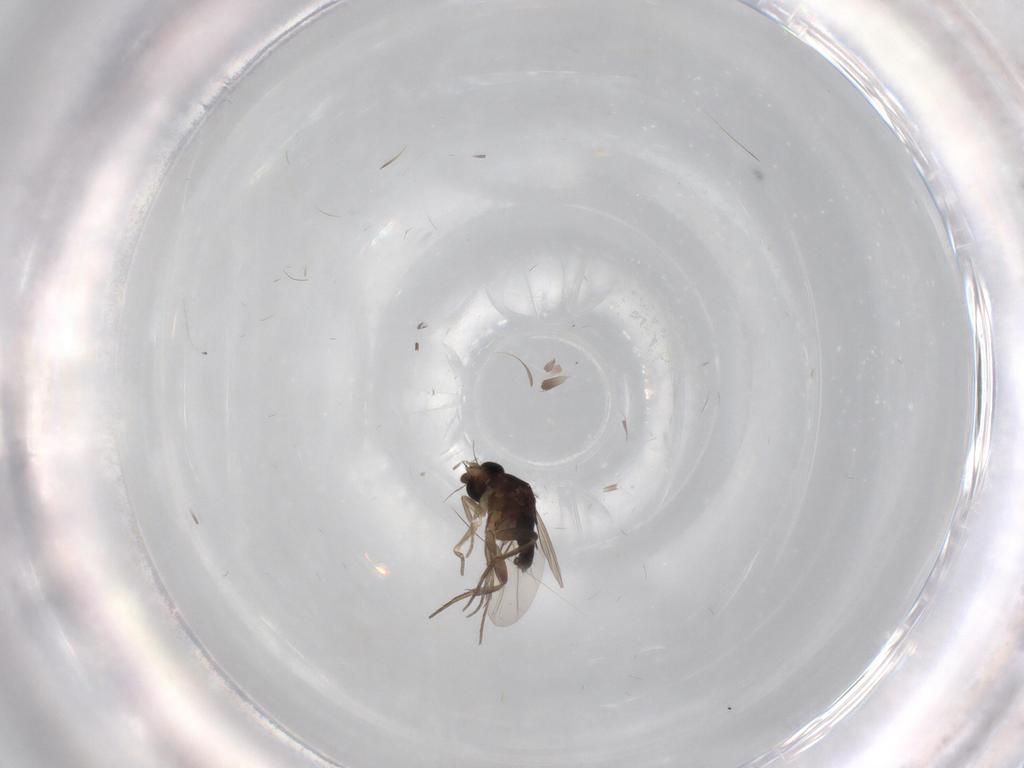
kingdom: Animalia
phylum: Arthropoda
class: Insecta
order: Diptera
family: Phoridae
